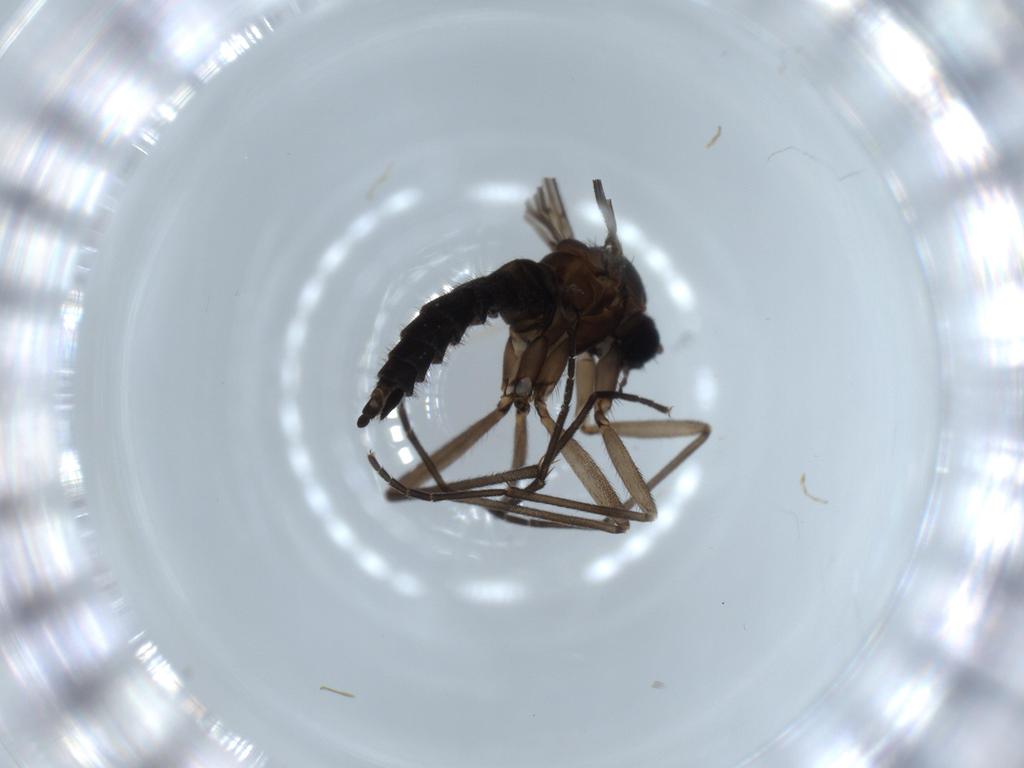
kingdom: Animalia
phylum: Arthropoda
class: Insecta
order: Diptera
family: Sciaridae
